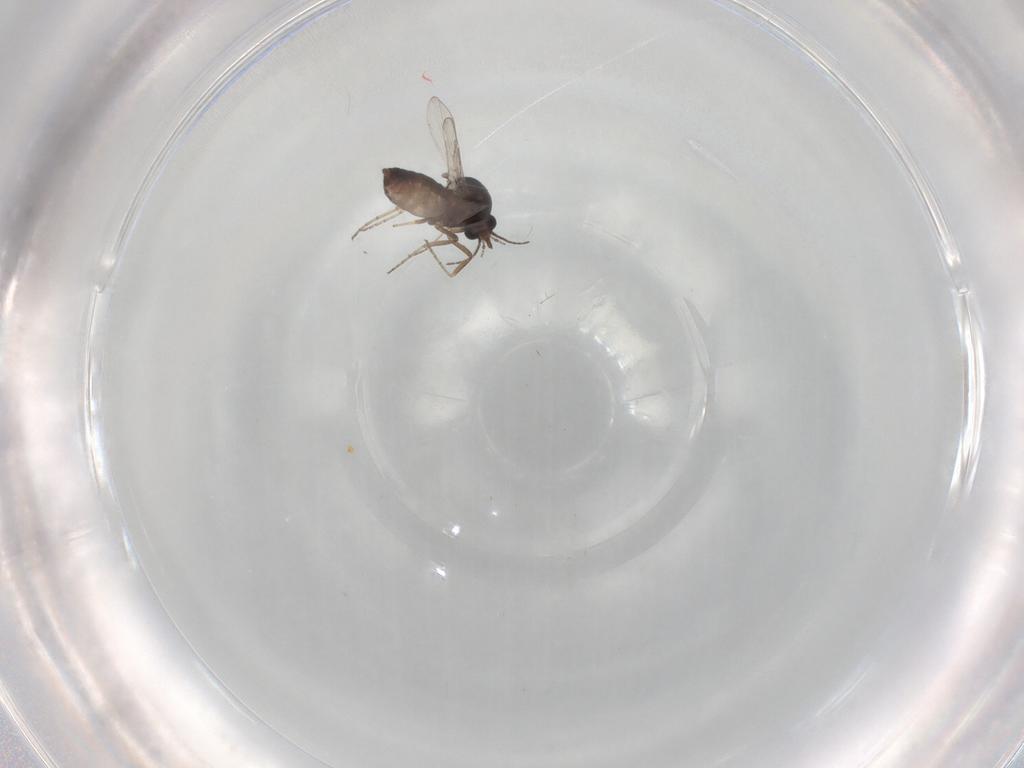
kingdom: Animalia
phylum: Arthropoda
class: Insecta
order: Diptera
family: Ceratopogonidae
